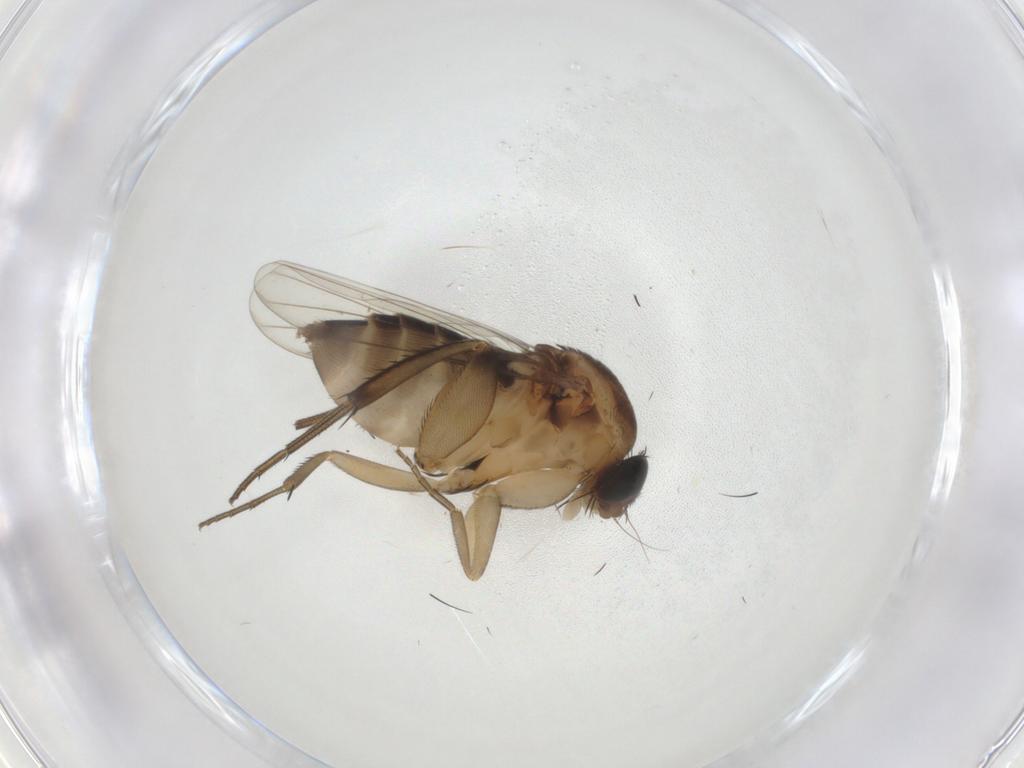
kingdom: Animalia
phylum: Arthropoda
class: Insecta
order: Diptera
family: Phoridae
